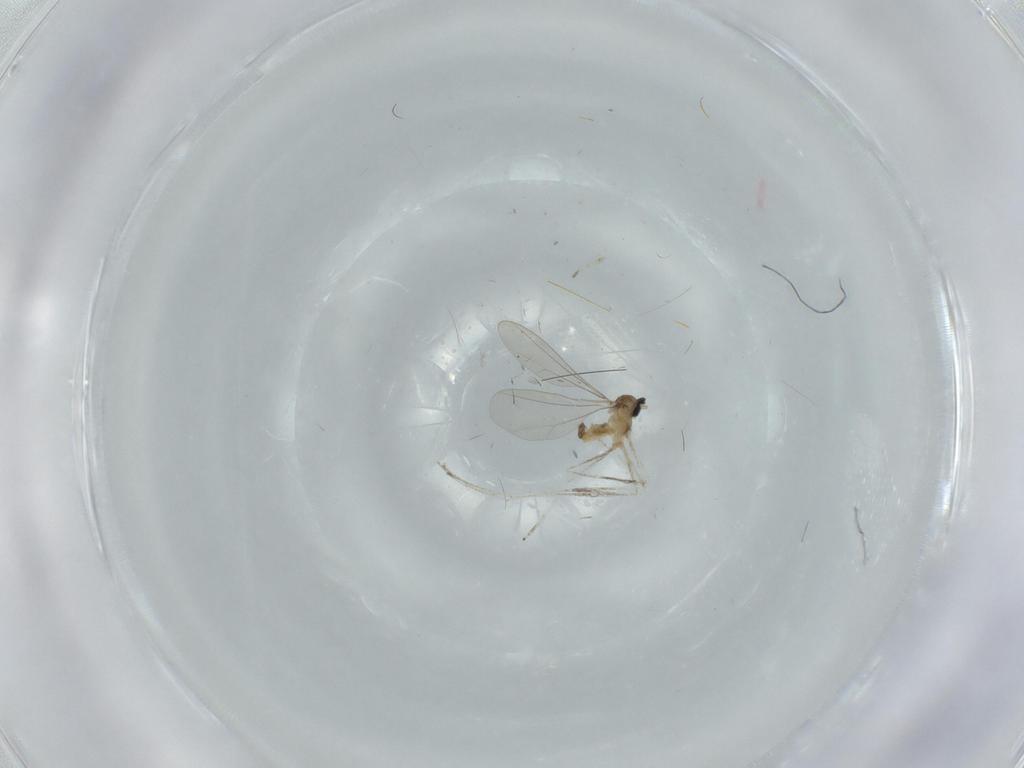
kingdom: Animalia
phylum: Arthropoda
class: Insecta
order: Diptera
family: Cecidomyiidae
